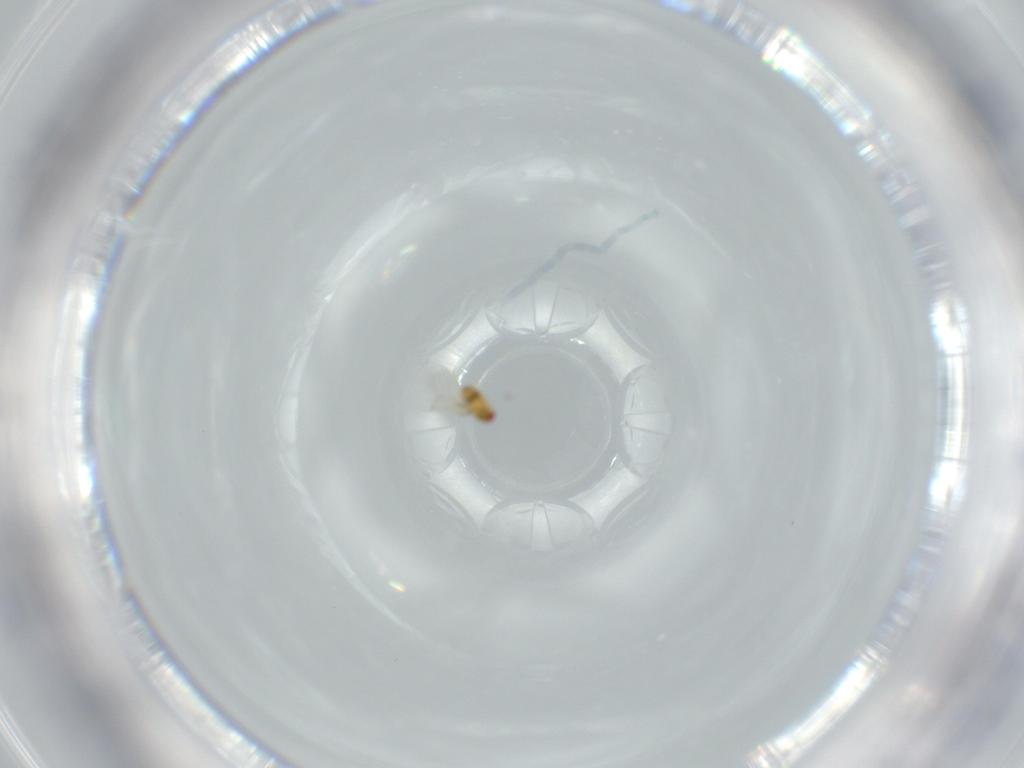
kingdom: Animalia
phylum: Arthropoda
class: Insecta
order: Hymenoptera
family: Trichogrammatidae
